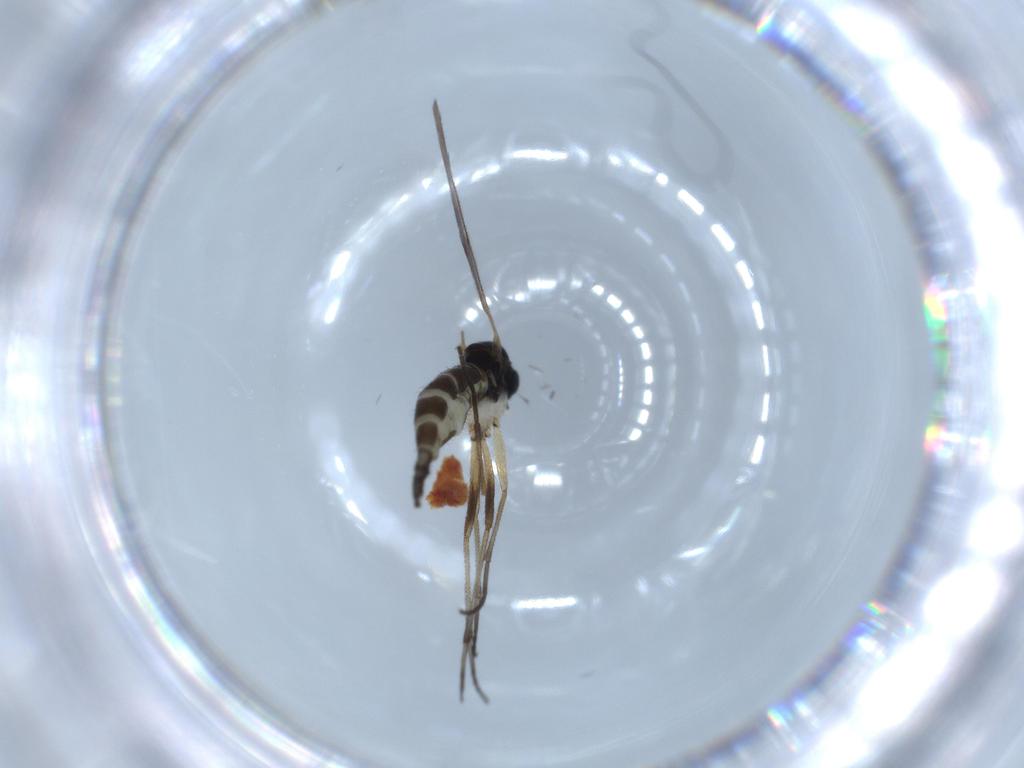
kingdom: Animalia
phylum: Arthropoda
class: Insecta
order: Diptera
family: Sciaridae
